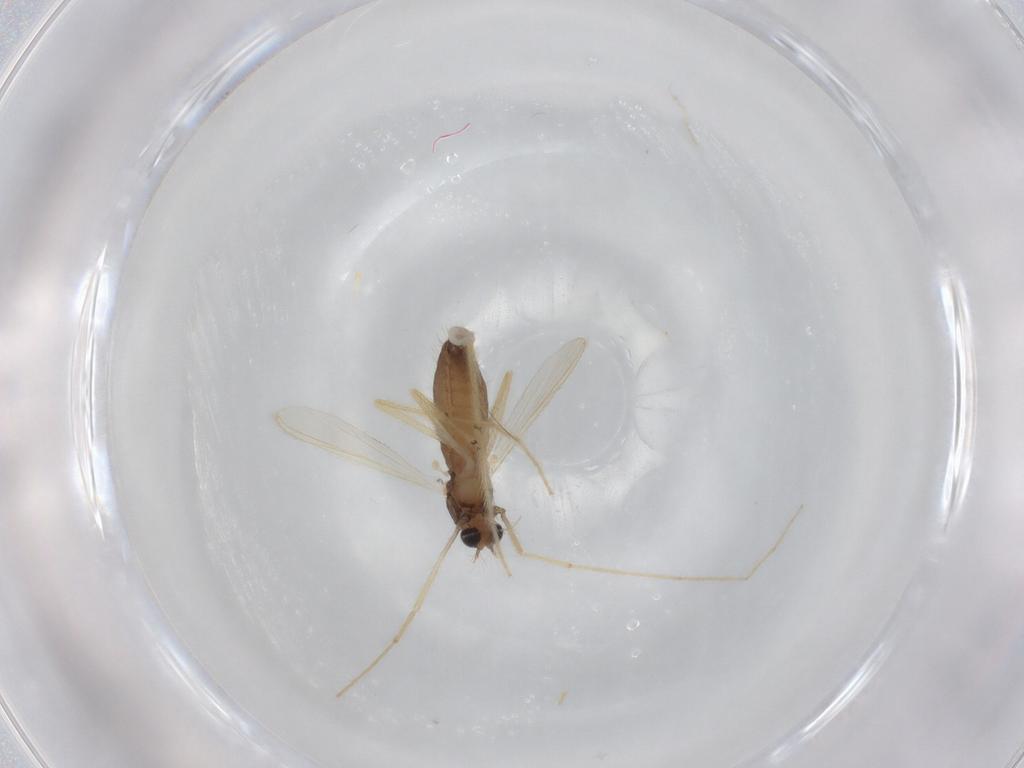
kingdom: Animalia
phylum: Arthropoda
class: Insecta
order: Diptera
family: Chironomidae
